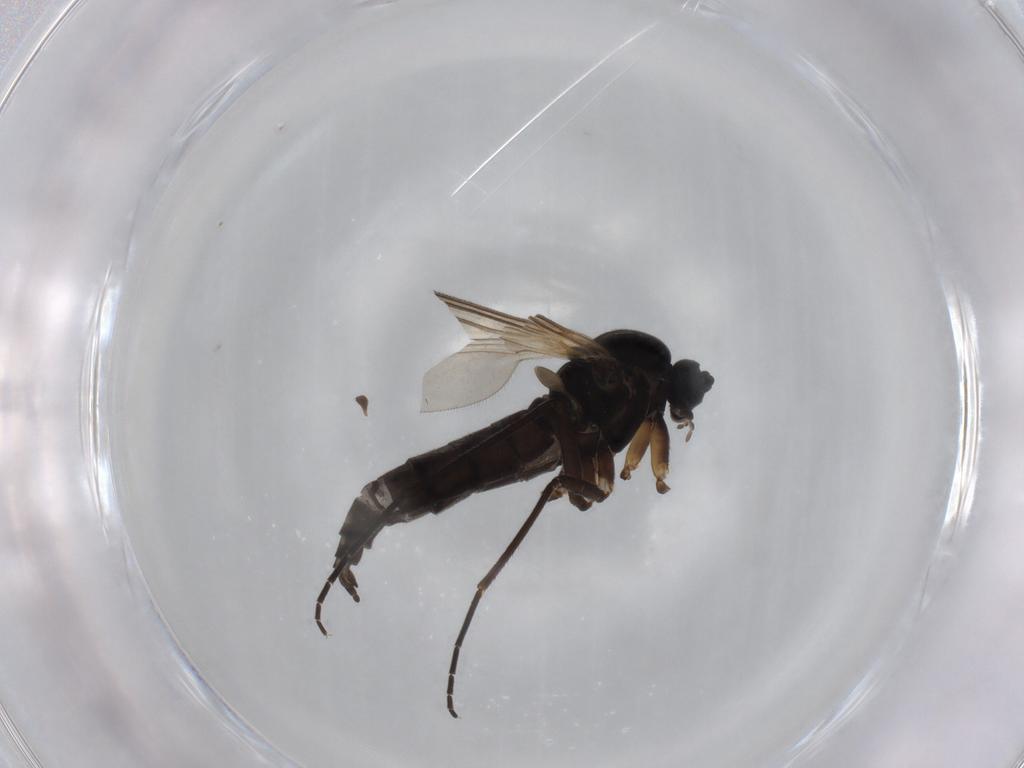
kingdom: Animalia
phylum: Arthropoda
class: Insecta
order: Diptera
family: Sciaridae
